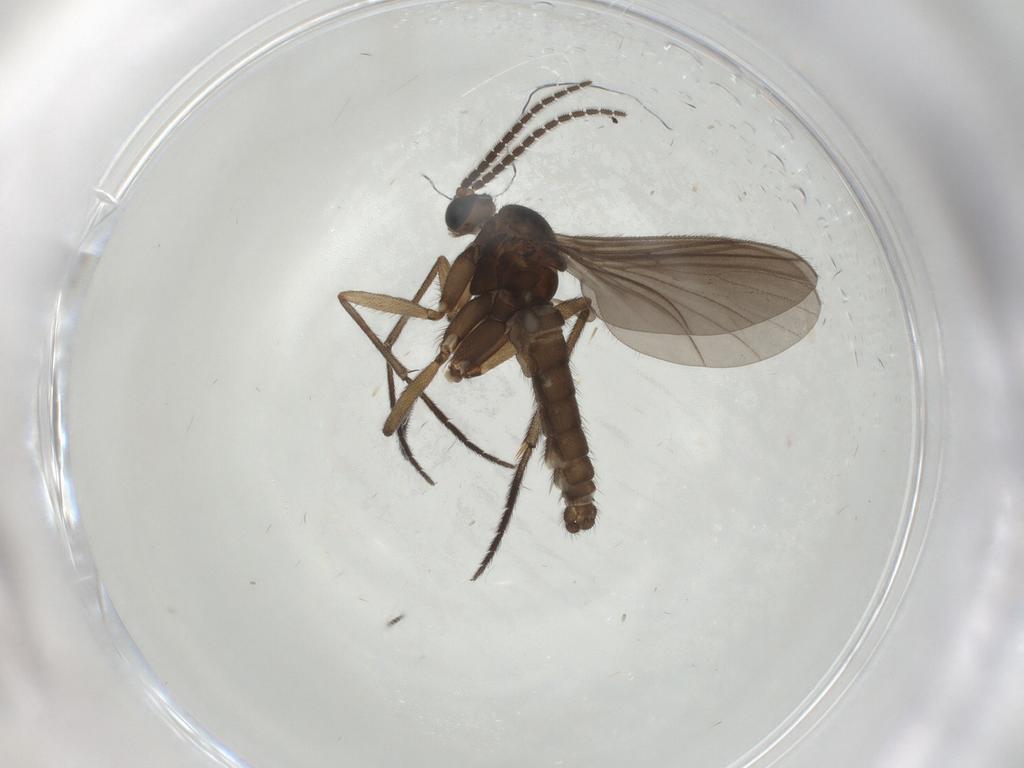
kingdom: Animalia
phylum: Arthropoda
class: Insecta
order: Diptera
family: Sciaridae
